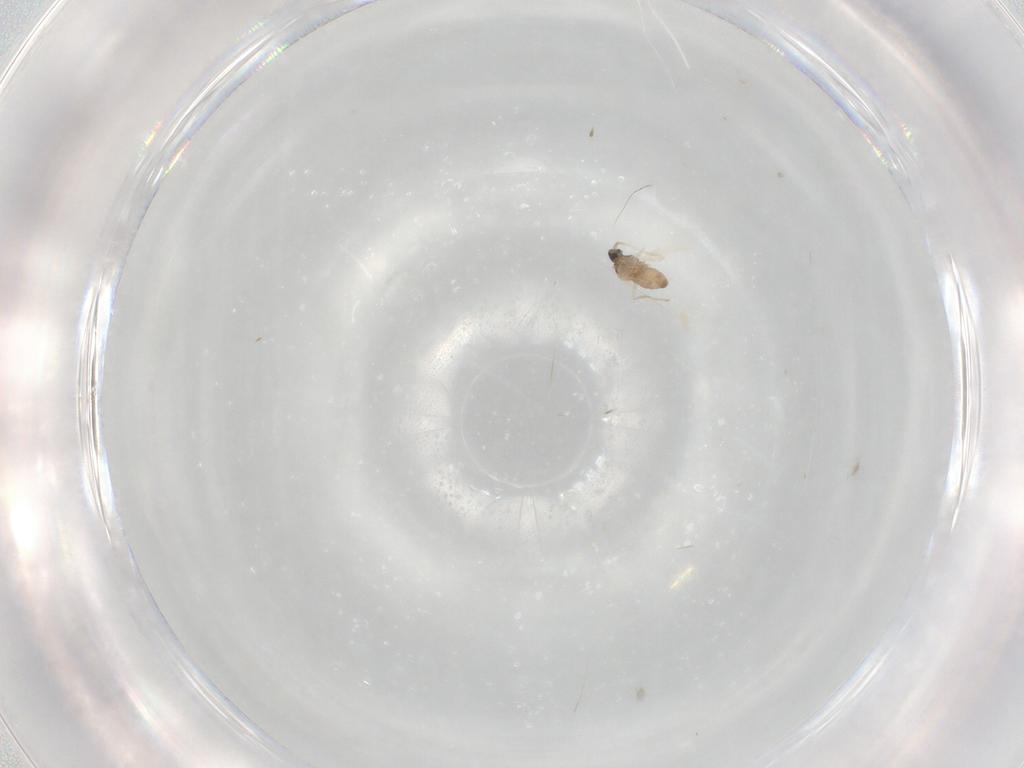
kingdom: Animalia
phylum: Arthropoda
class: Insecta
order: Diptera
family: Cecidomyiidae
